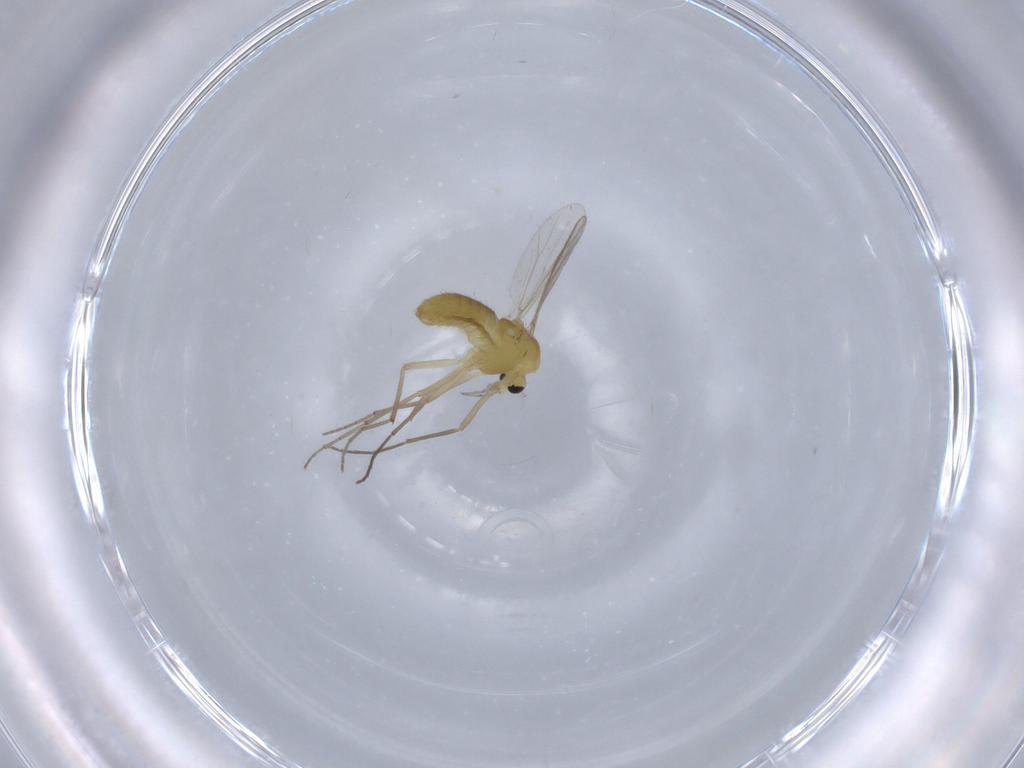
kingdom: Animalia
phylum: Arthropoda
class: Insecta
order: Diptera
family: Chironomidae
